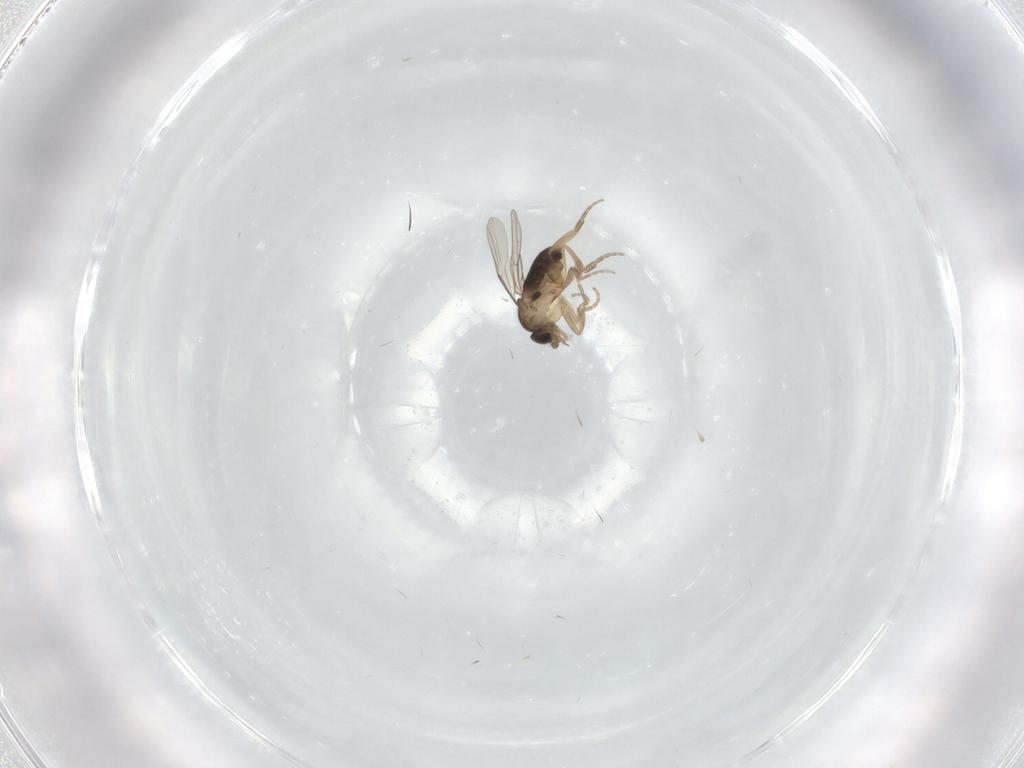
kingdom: Animalia
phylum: Arthropoda
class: Insecta
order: Diptera
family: Phoridae
